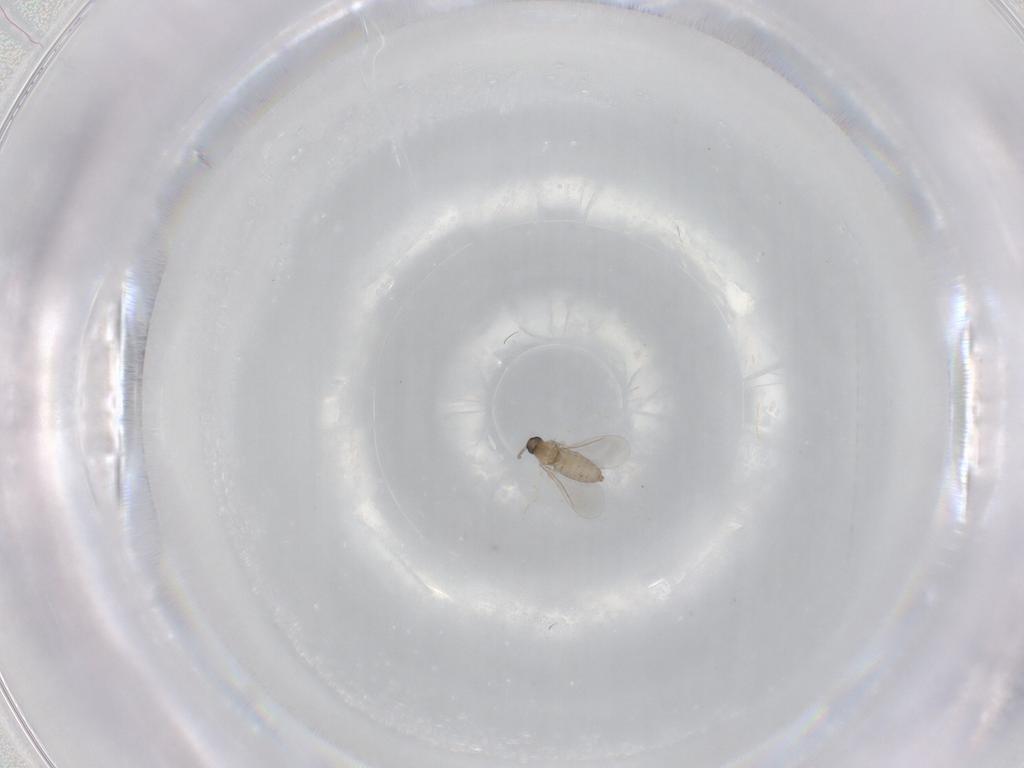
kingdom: Animalia
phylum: Arthropoda
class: Insecta
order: Diptera
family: Cecidomyiidae
